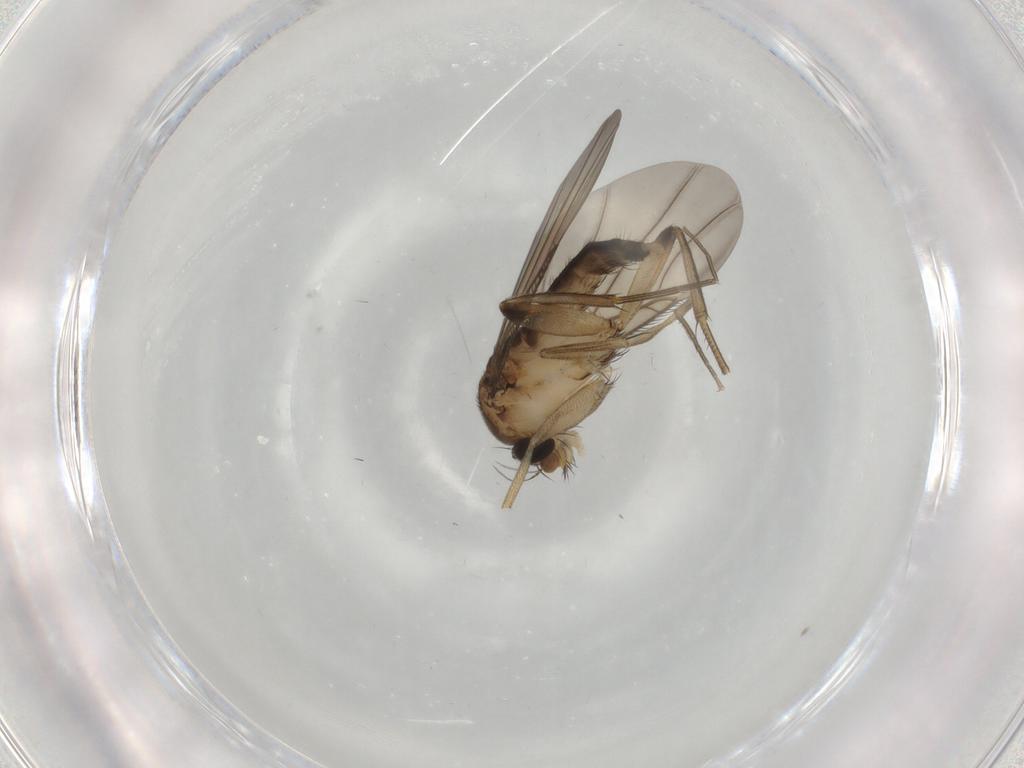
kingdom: Animalia
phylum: Arthropoda
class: Insecta
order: Diptera
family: Phoridae
